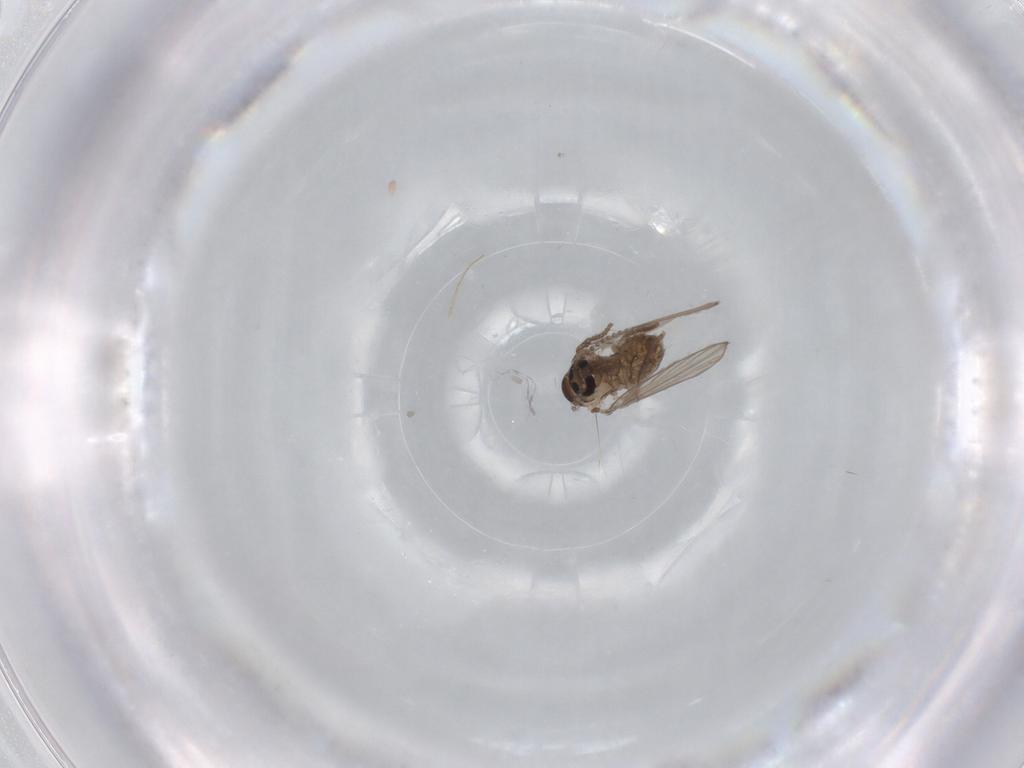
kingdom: Animalia
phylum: Arthropoda
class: Insecta
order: Diptera
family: Psychodidae
